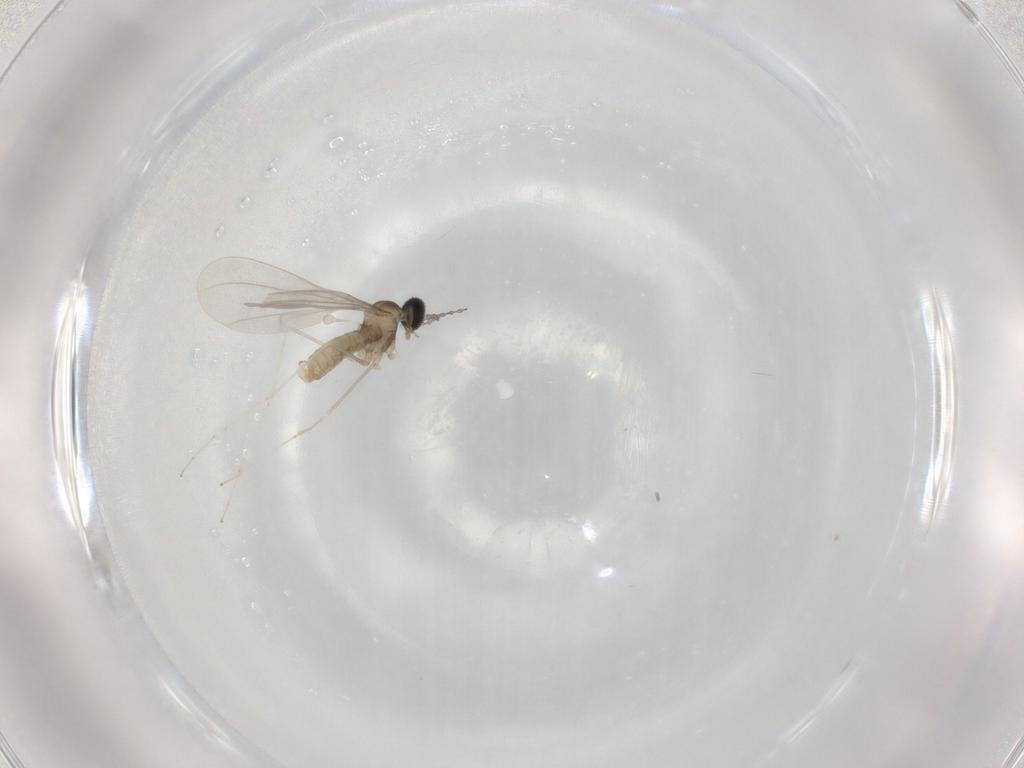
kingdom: Animalia
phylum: Arthropoda
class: Insecta
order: Diptera
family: Cecidomyiidae
